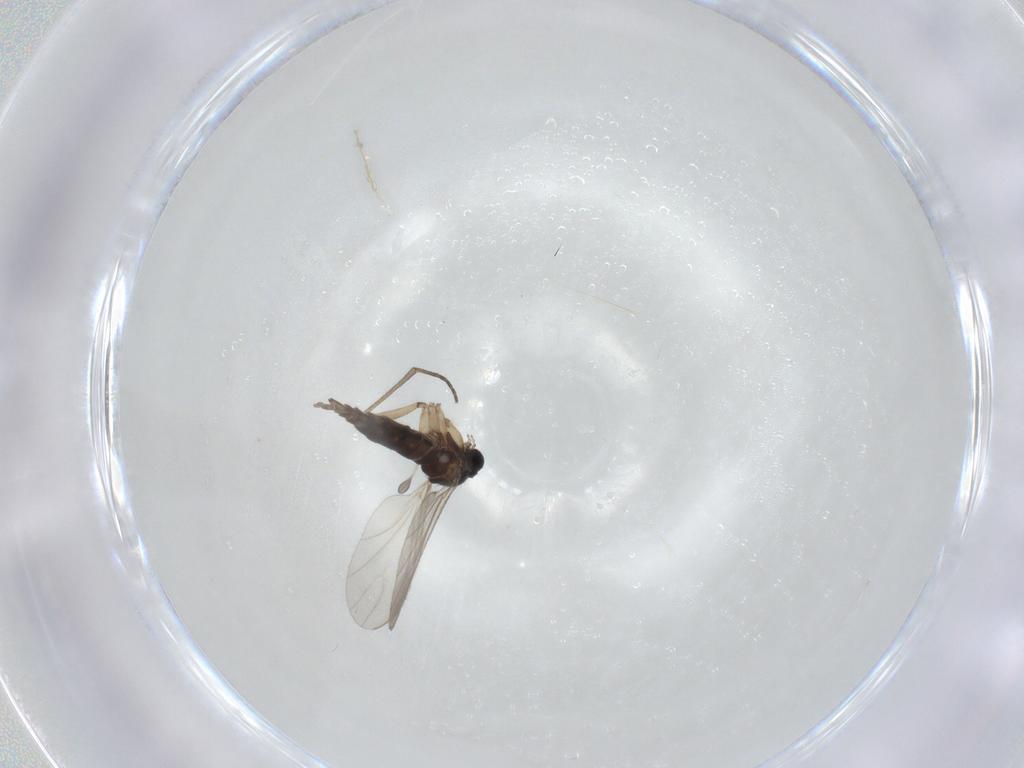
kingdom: Animalia
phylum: Arthropoda
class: Insecta
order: Diptera
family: Sciaridae
